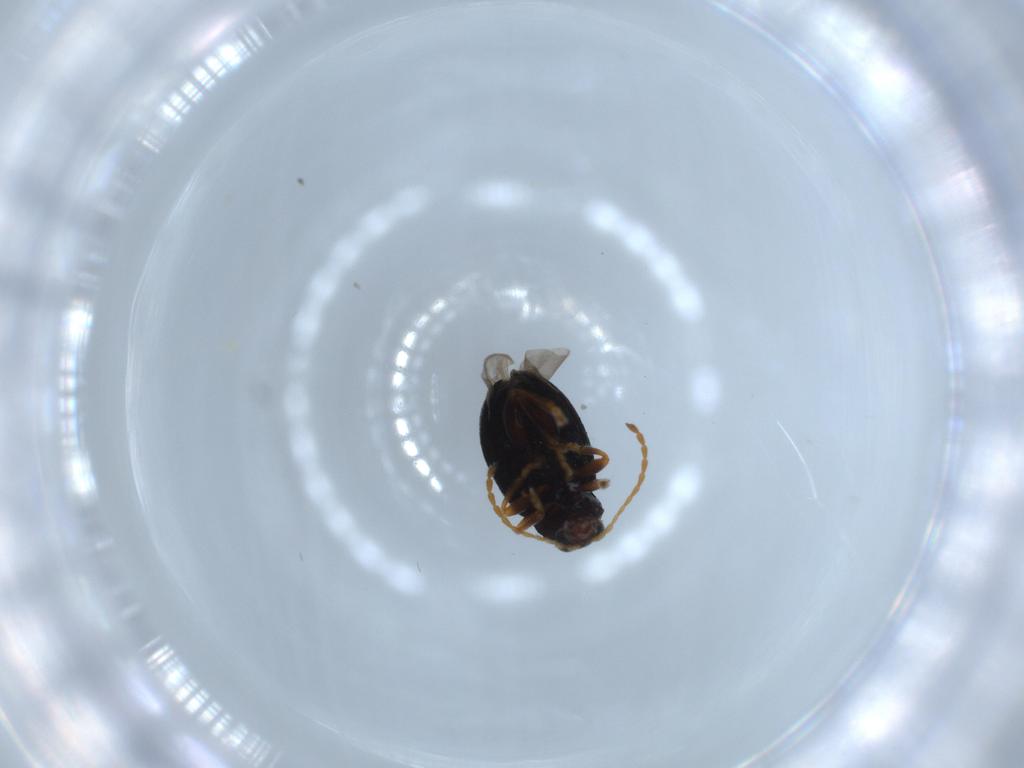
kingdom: Animalia
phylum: Arthropoda
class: Insecta
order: Coleoptera
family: Chrysomelidae
